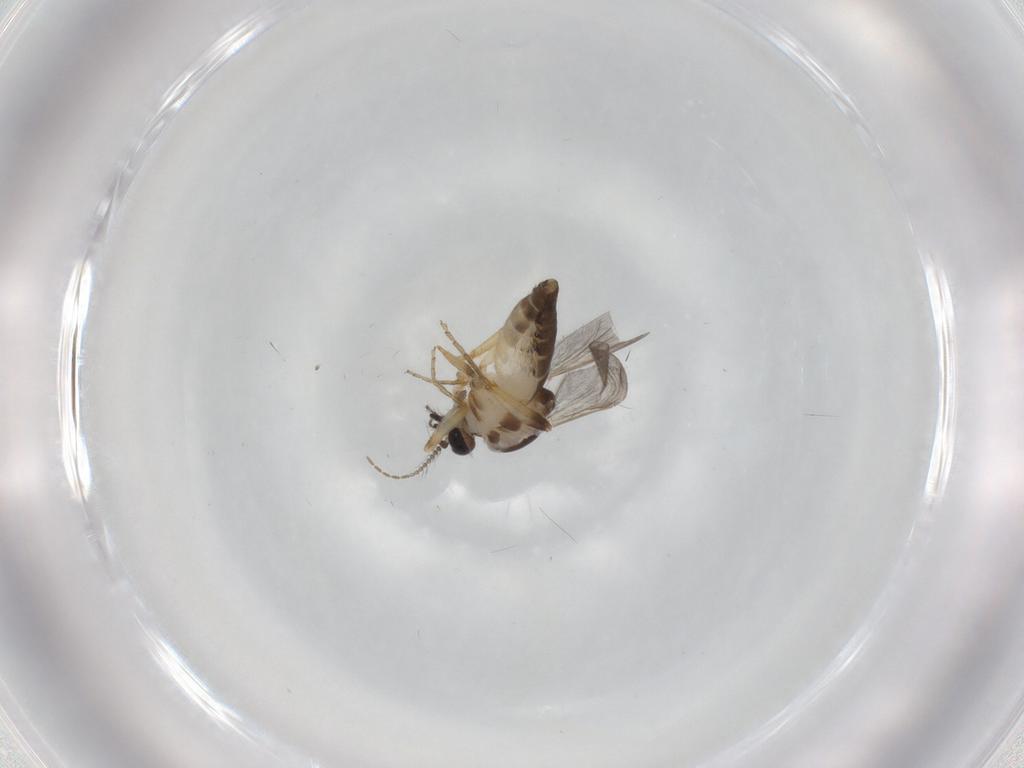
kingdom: Animalia
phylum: Arthropoda
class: Insecta
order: Diptera
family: Ceratopogonidae
